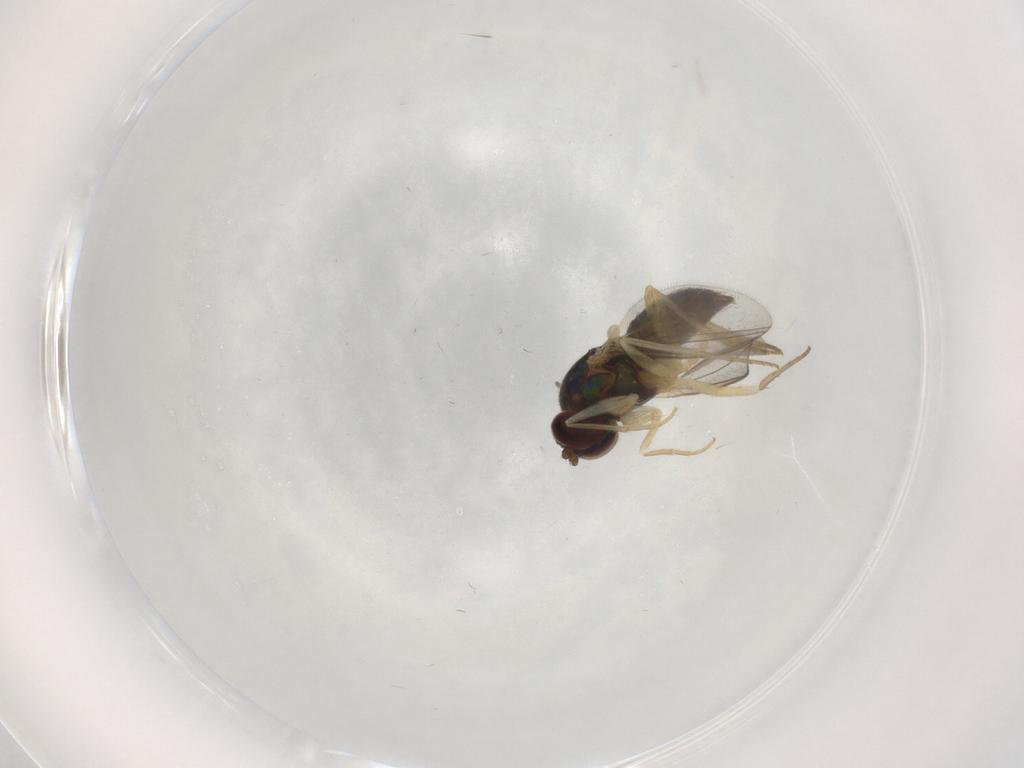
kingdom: Animalia
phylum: Arthropoda
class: Insecta
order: Diptera
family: Dolichopodidae
